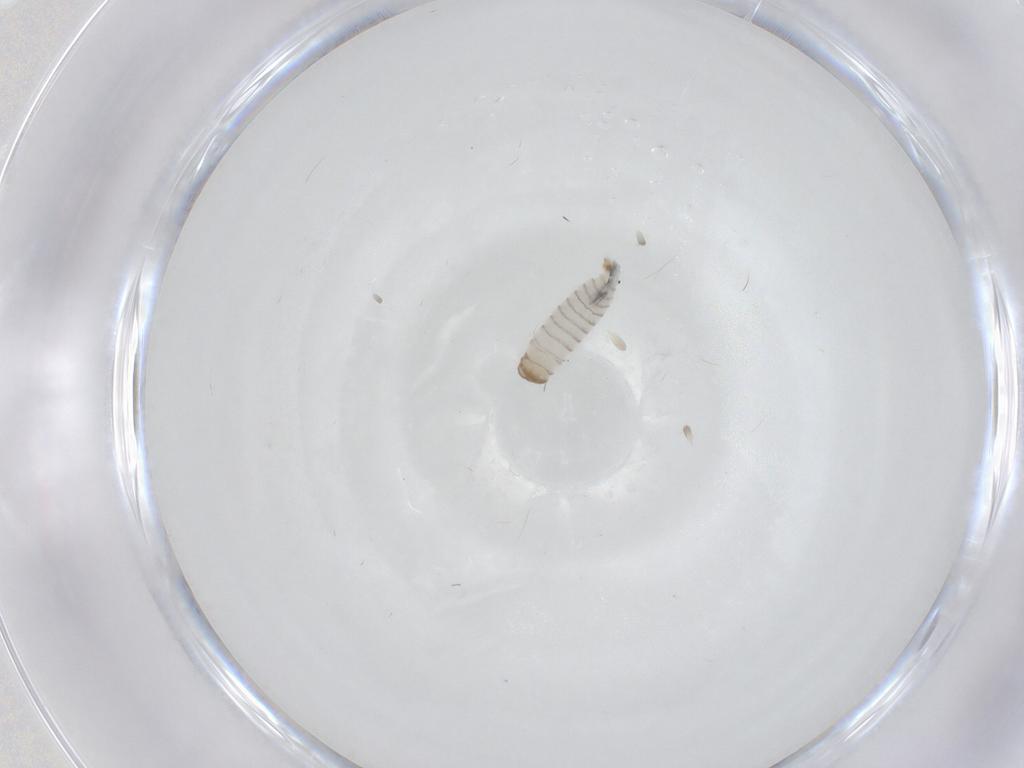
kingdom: Animalia
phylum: Arthropoda
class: Insecta
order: Diptera
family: Sarcophagidae
